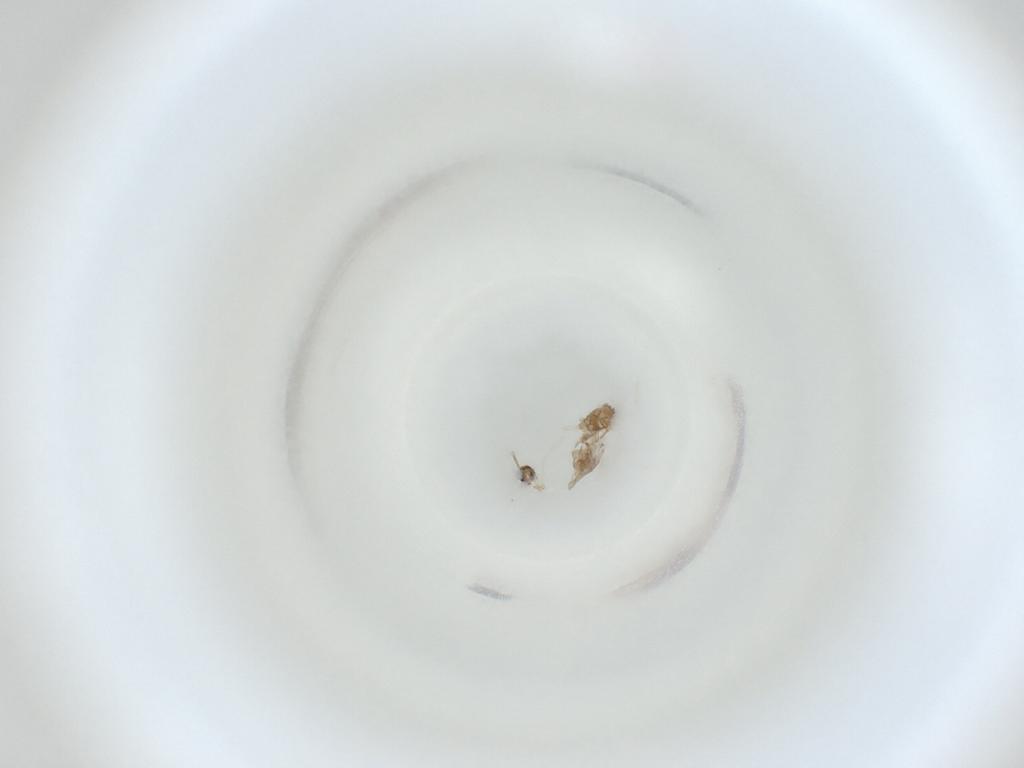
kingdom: Animalia
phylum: Arthropoda
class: Insecta
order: Diptera
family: Cecidomyiidae
